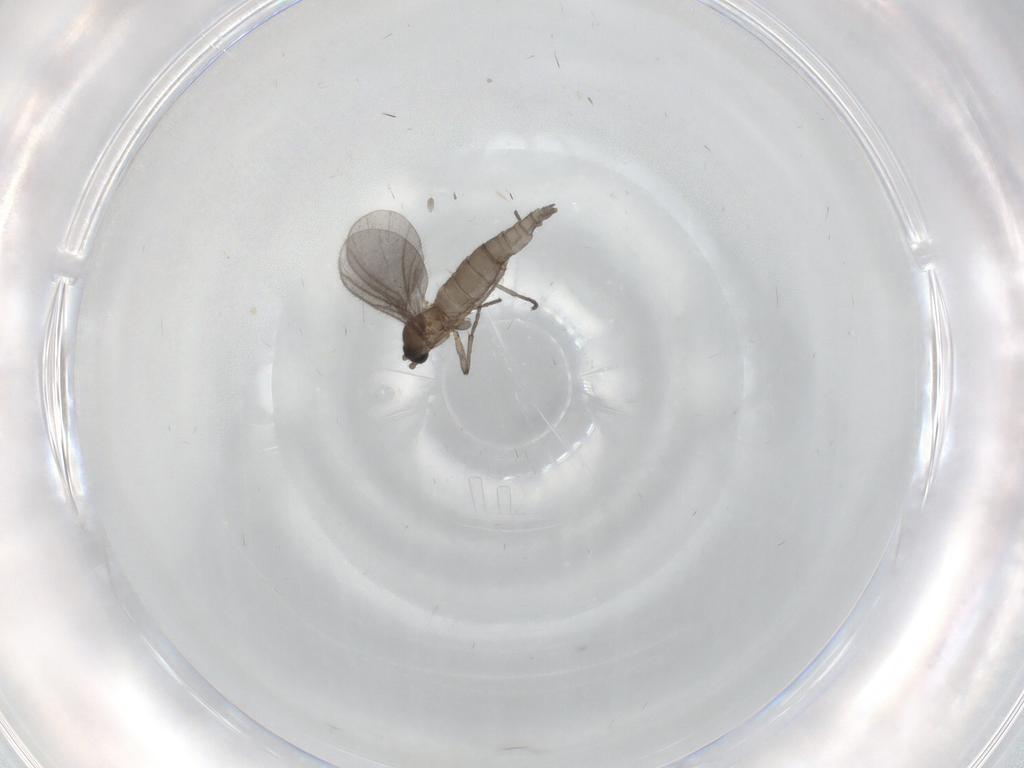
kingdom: Animalia
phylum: Arthropoda
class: Insecta
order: Diptera
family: Sciaridae
